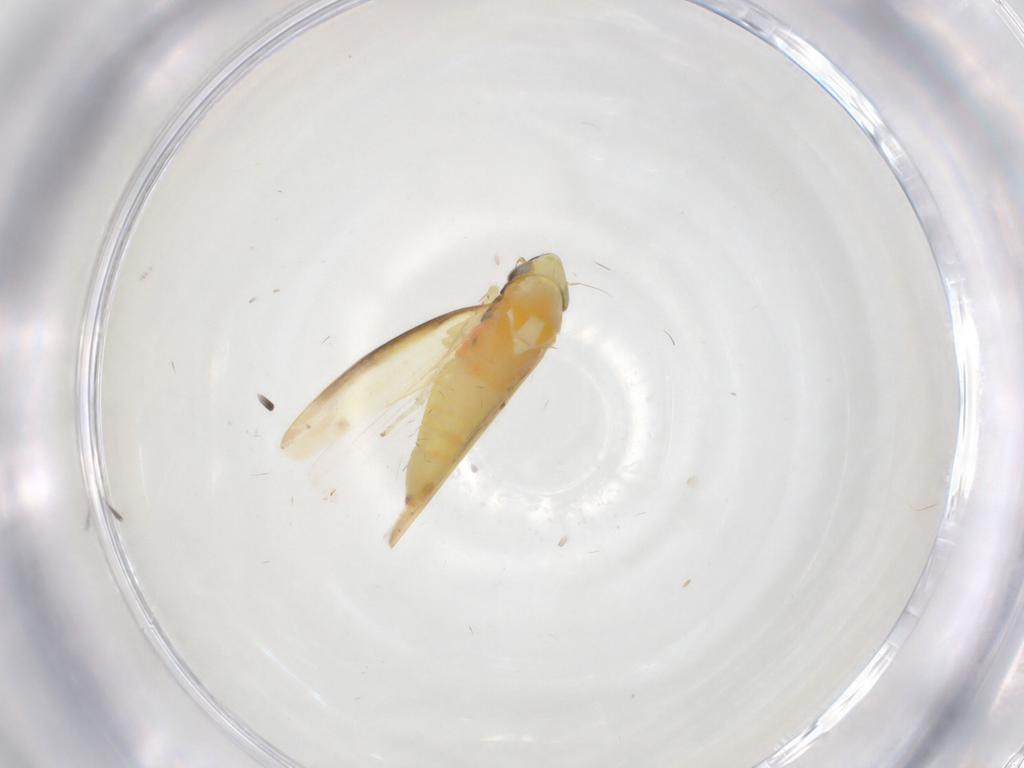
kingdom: Animalia
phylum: Arthropoda
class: Insecta
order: Hemiptera
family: Cicadellidae
